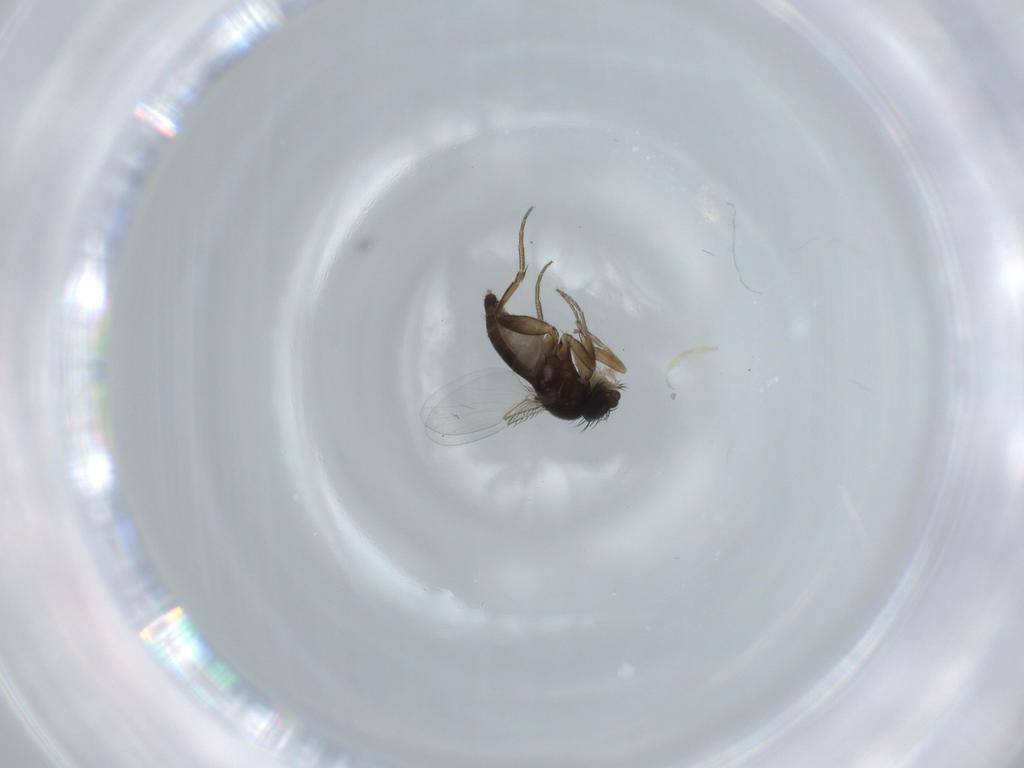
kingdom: Animalia
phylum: Arthropoda
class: Insecta
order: Diptera
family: Phoridae
